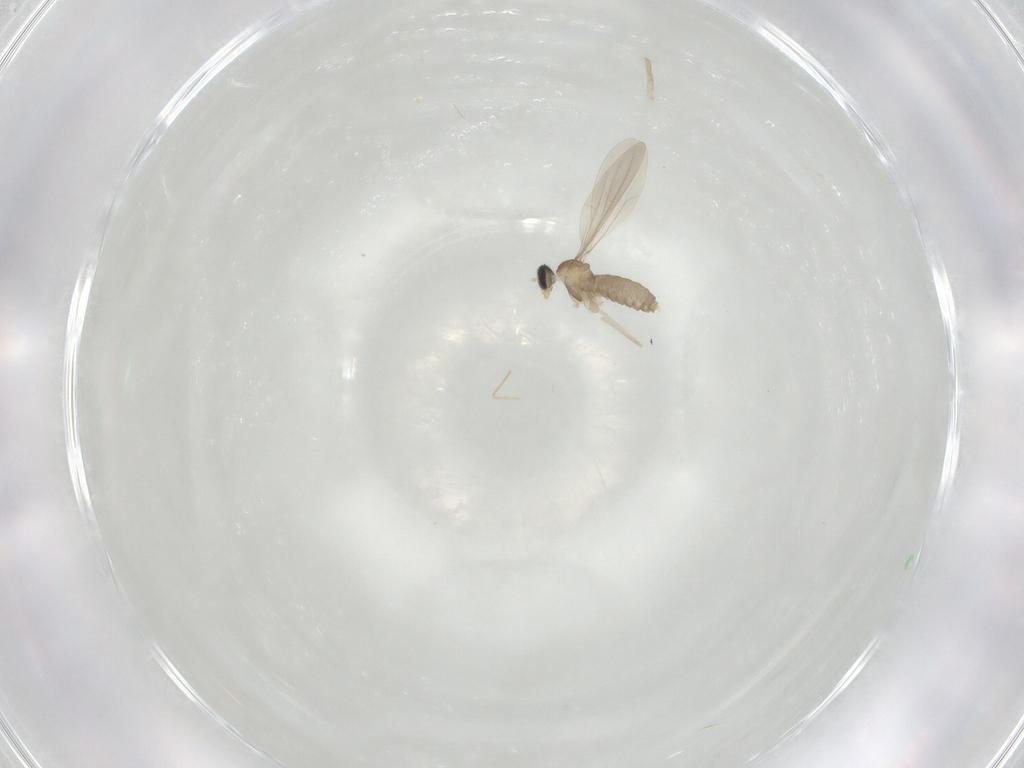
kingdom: Animalia
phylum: Arthropoda
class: Insecta
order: Diptera
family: Cecidomyiidae
